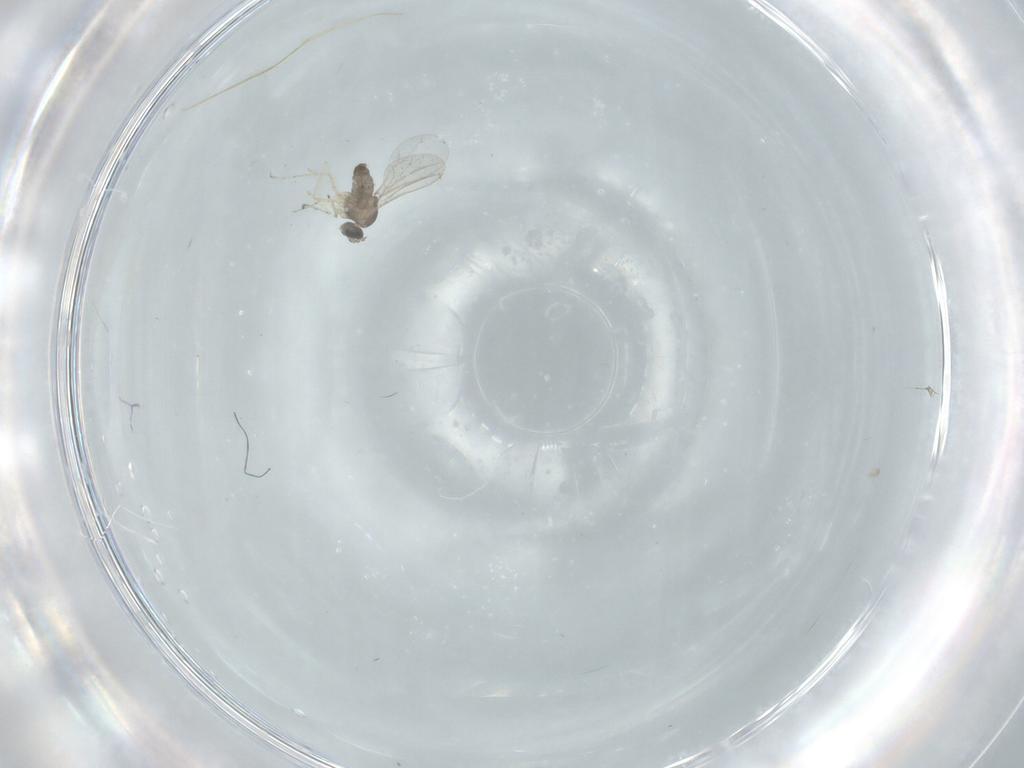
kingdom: Animalia
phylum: Arthropoda
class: Insecta
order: Diptera
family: Cecidomyiidae
